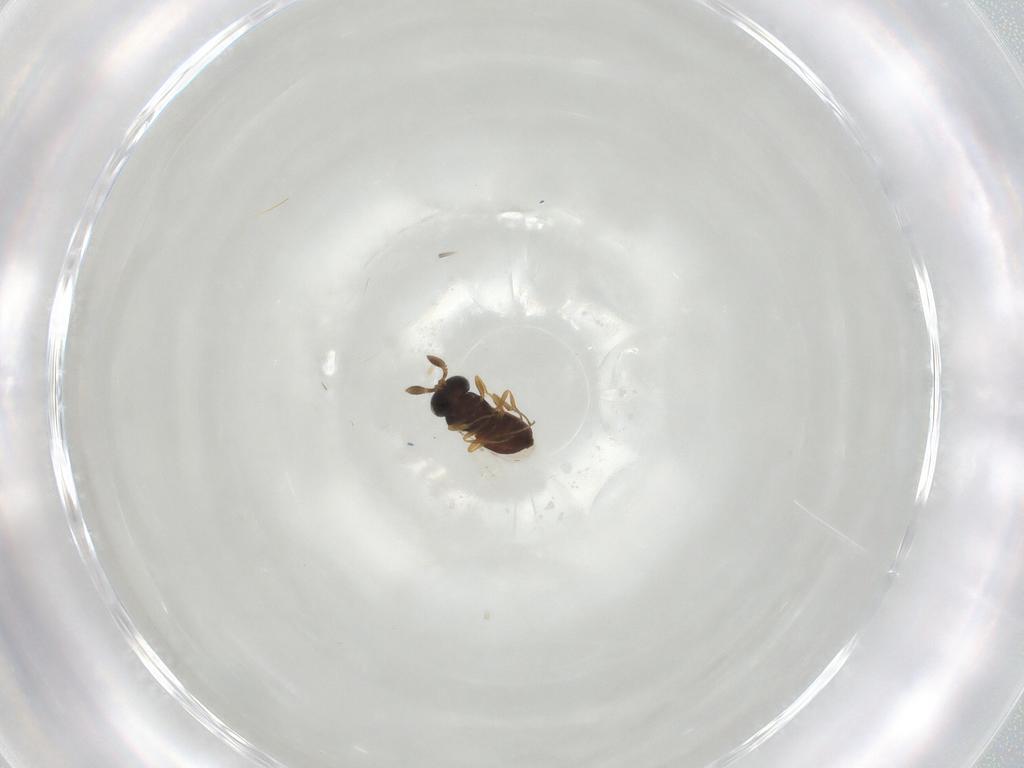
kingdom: Animalia
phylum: Arthropoda
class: Insecta
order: Hymenoptera
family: Scelionidae
